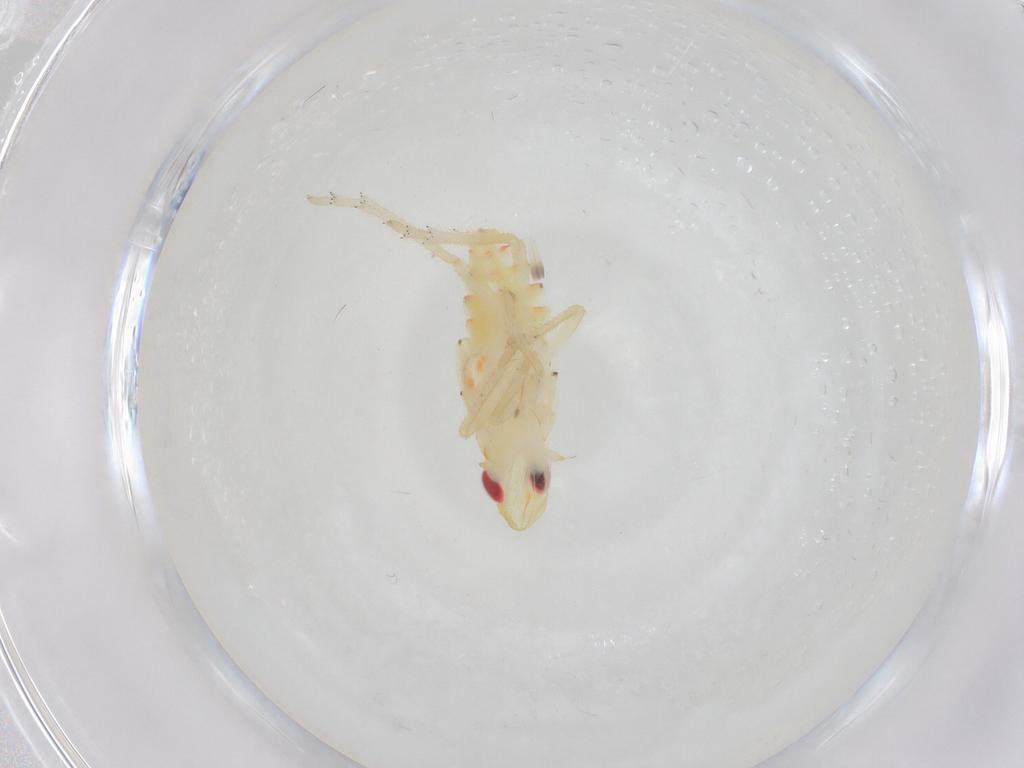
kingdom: Animalia
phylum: Arthropoda
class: Insecta
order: Hemiptera
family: Tropiduchidae
